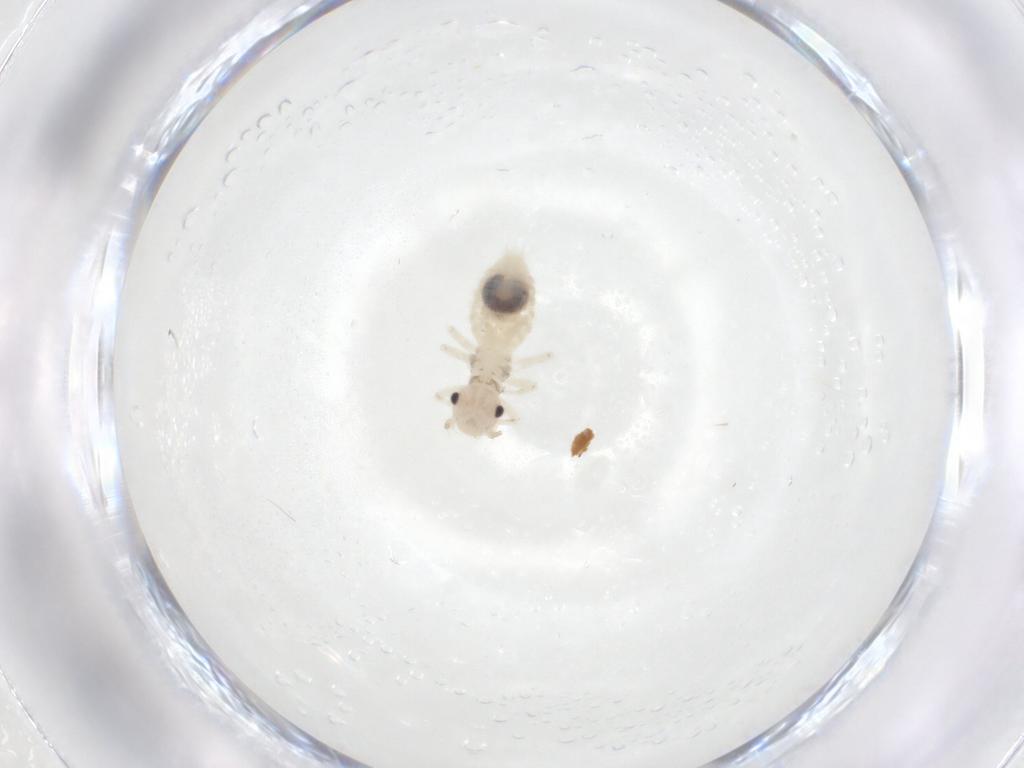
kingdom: Animalia
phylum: Arthropoda
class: Insecta
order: Psocodea
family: Amphipsocidae
